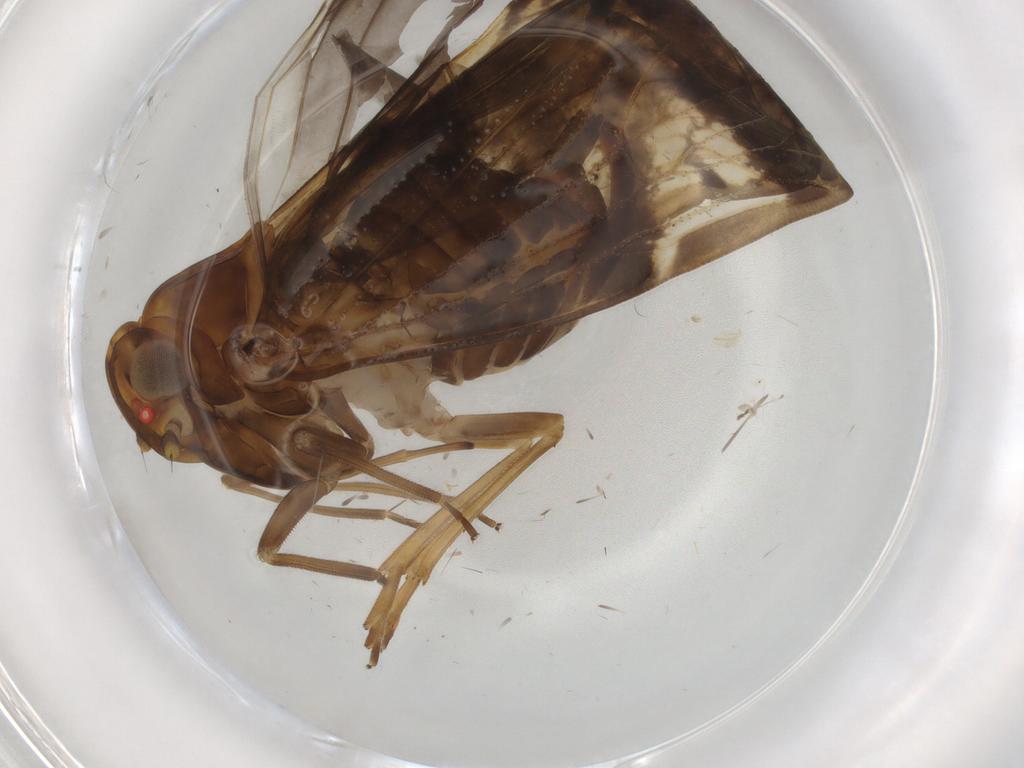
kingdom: Animalia
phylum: Arthropoda
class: Insecta
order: Hemiptera
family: Cixiidae
